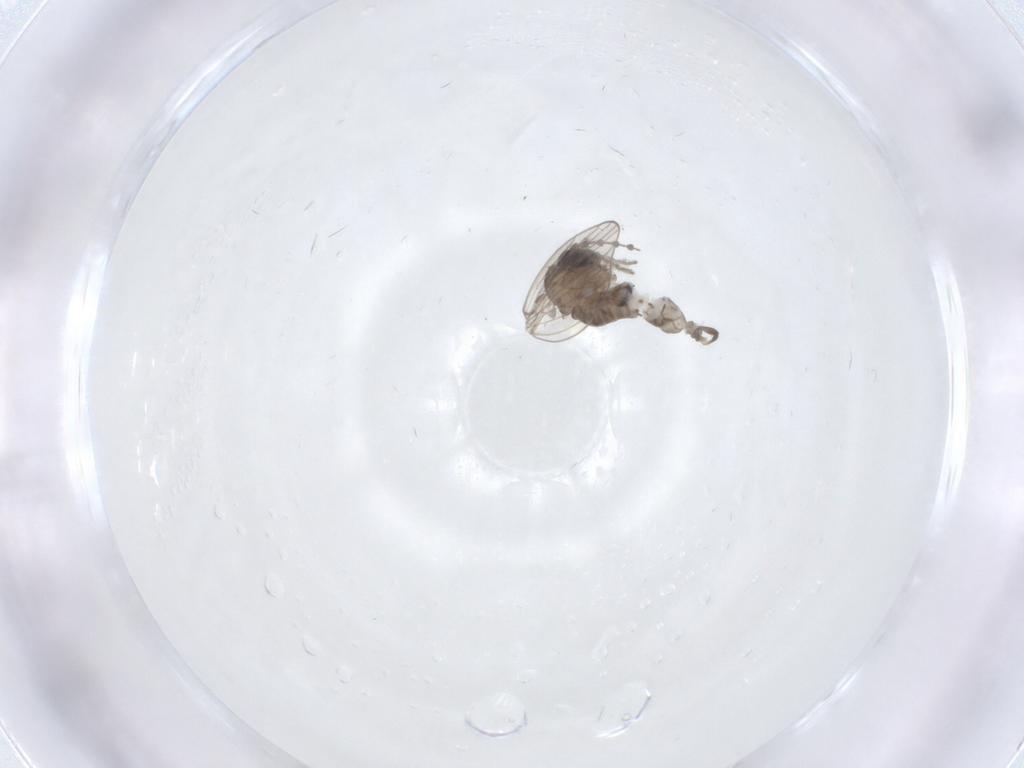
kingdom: Animalia
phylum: Arthropoda
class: Insecta
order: Diptera
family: Psychodidae
